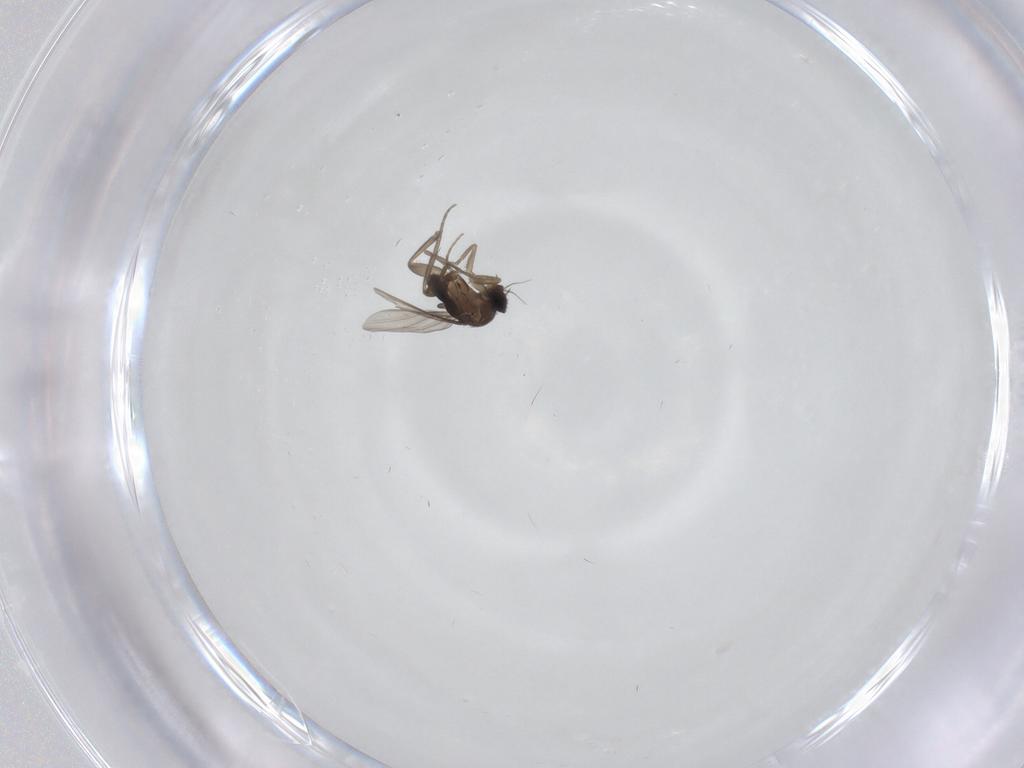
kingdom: Animalia
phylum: Arthropoda
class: Insecta
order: Diptera
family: Phoridae
